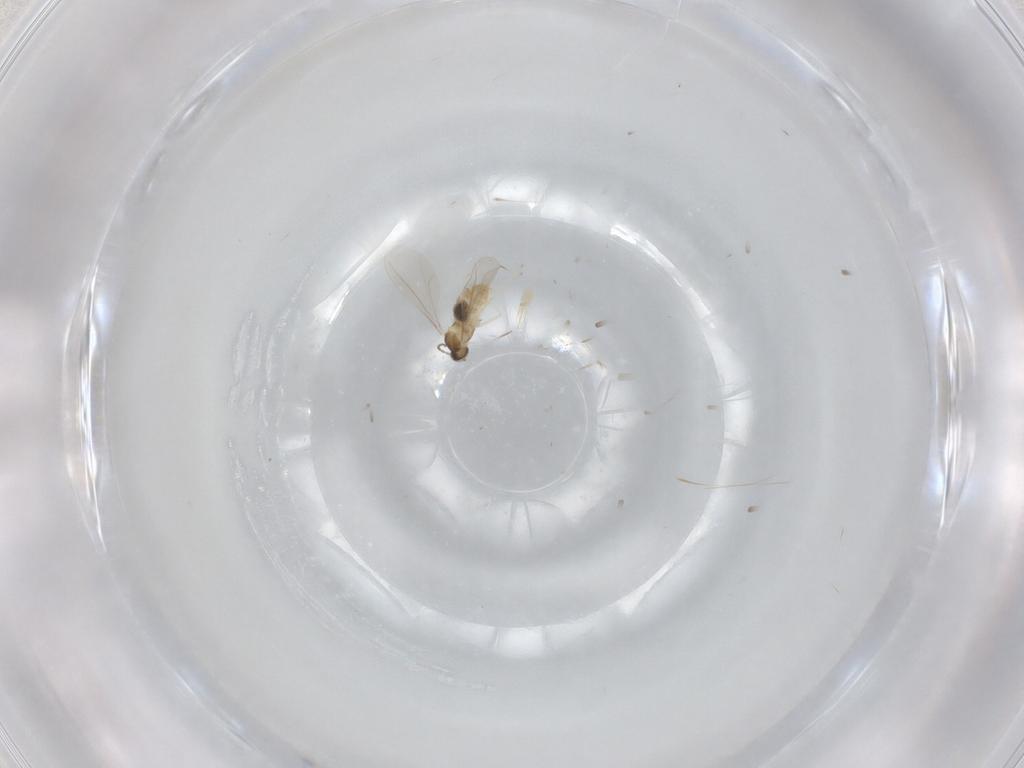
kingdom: Animalia
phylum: Arthropoda
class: Insecta
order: Diptera
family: Cecidomyiidae
